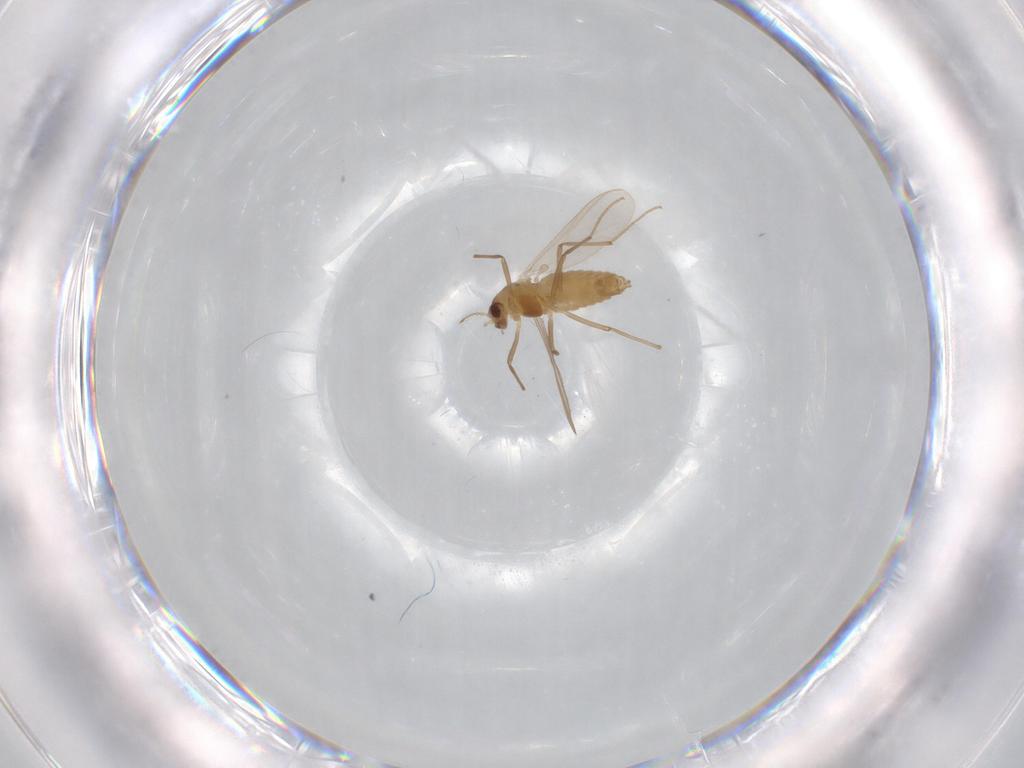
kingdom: Animalia
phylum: Arthropoda
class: Insecta
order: Diptera
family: Chironomidae
